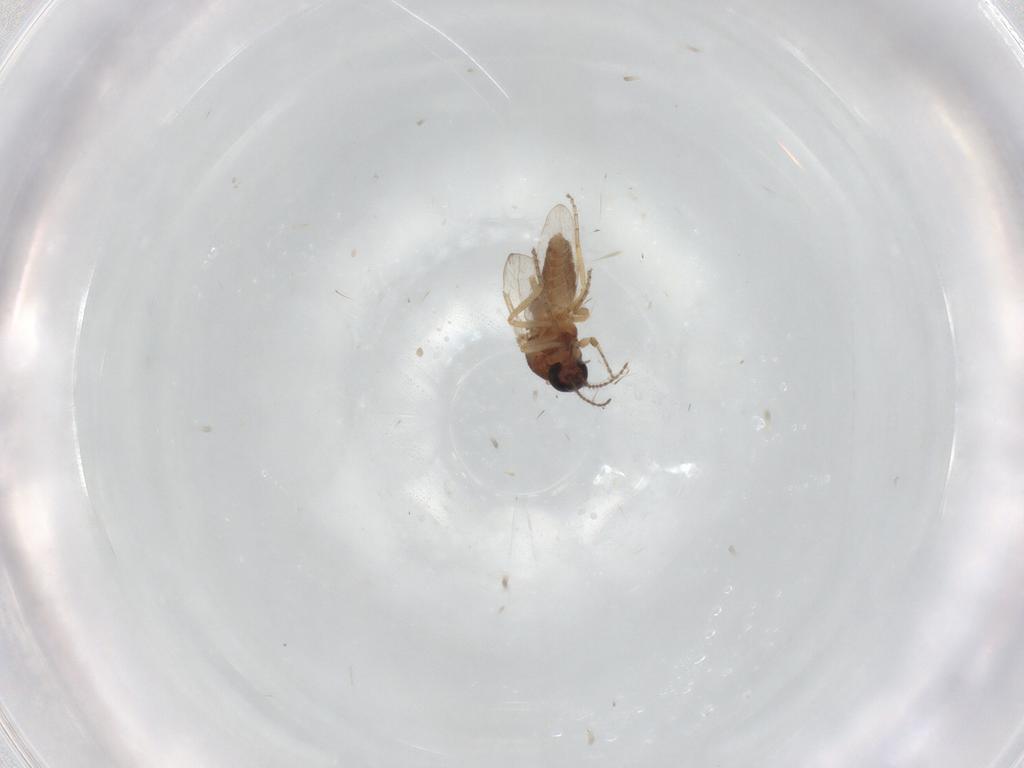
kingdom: Animalia
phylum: Arthropoda
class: Insecta
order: Diptera
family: Ceratopogonidae
